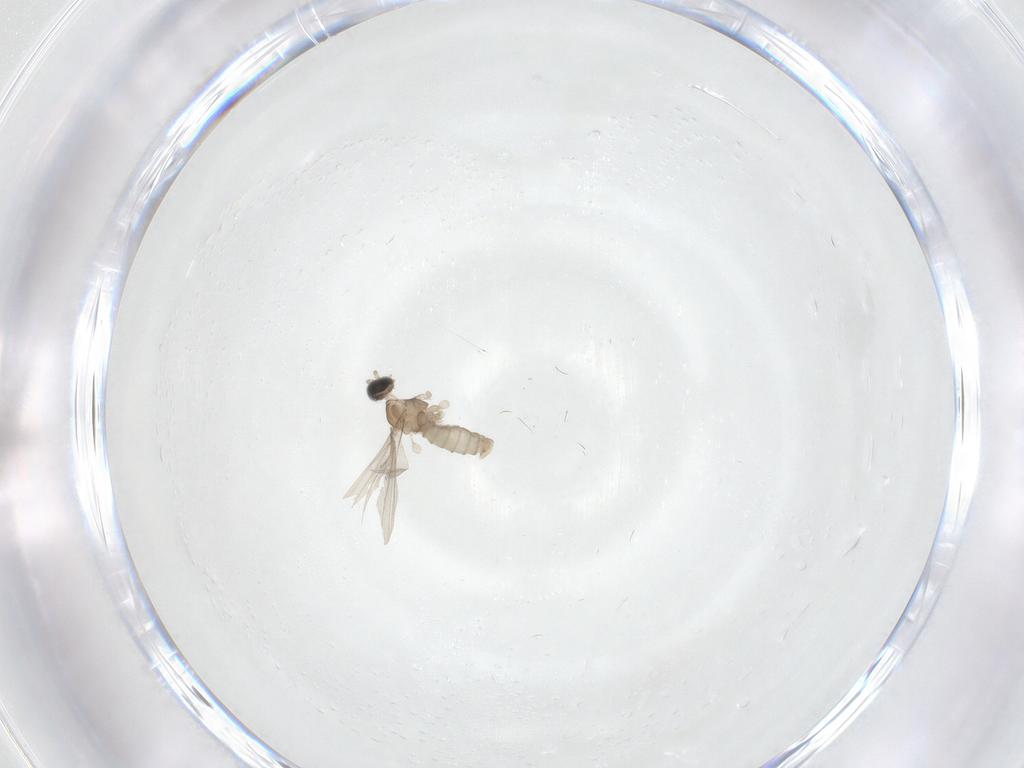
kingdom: Animalia
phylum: Arthropoda
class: Insecta
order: Diptera
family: Cecidomyiidae
